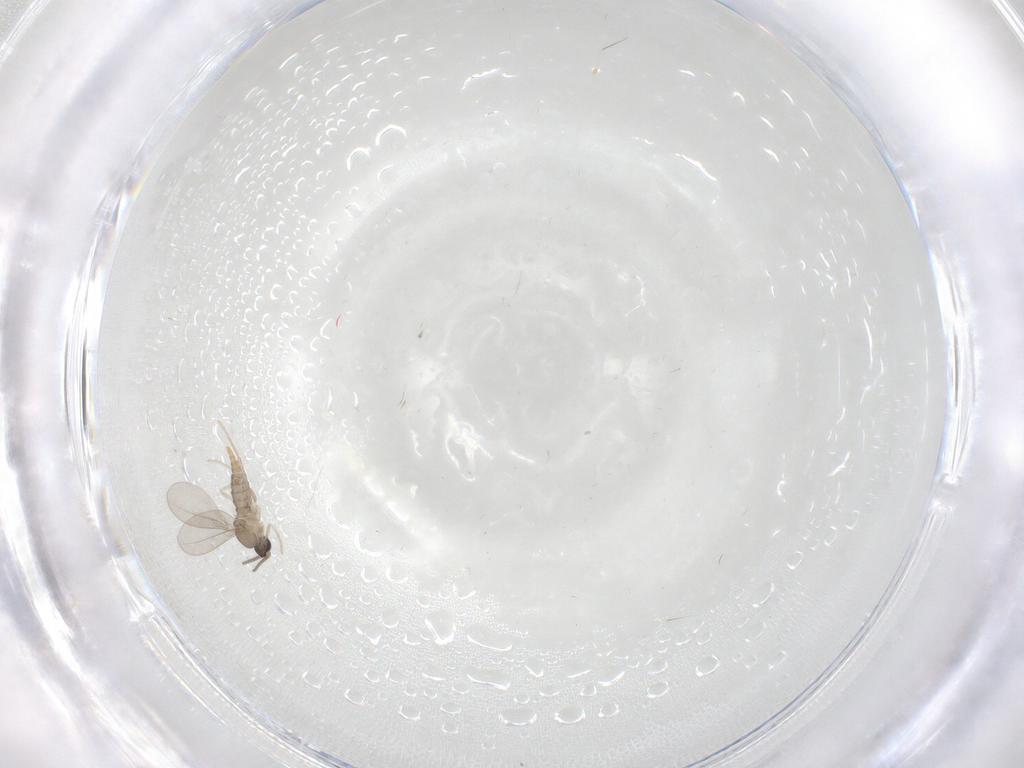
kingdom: Animalia
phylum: Arthropoda
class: Insecta
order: Diptera
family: Cecidomyiidae
